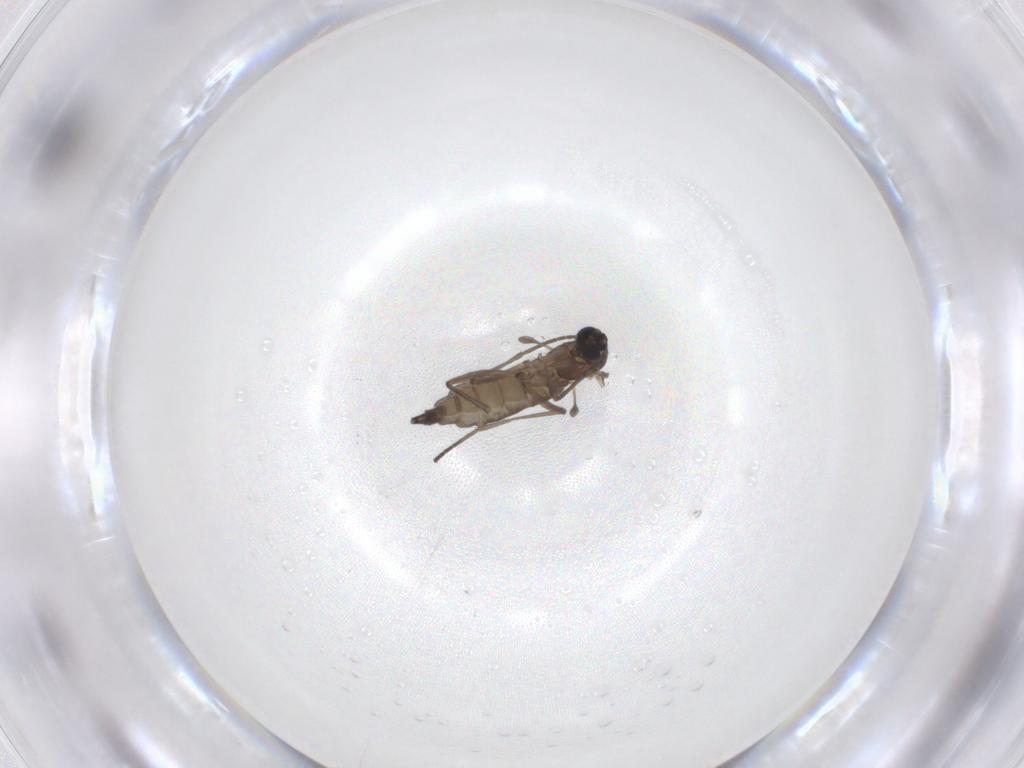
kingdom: Animalia
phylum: Arthropoda
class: Insecta
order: Diptera
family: Sciaridae
